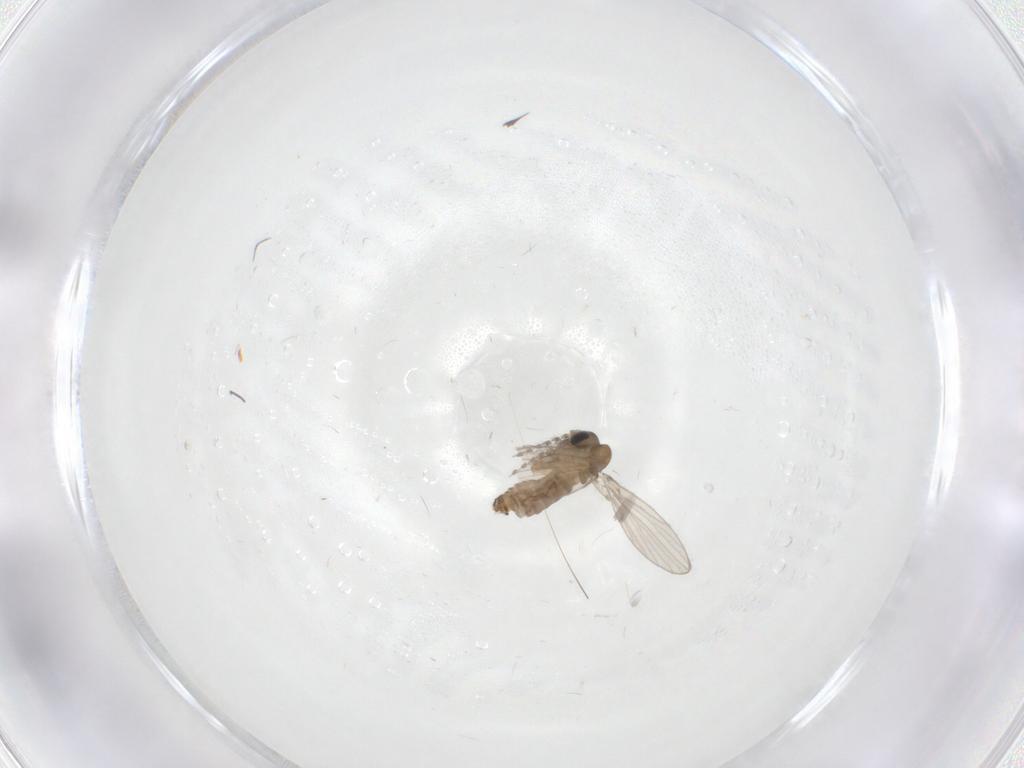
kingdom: Animalia
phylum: Arthropoda
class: Insecta
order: Diptera
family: Psychodidae
